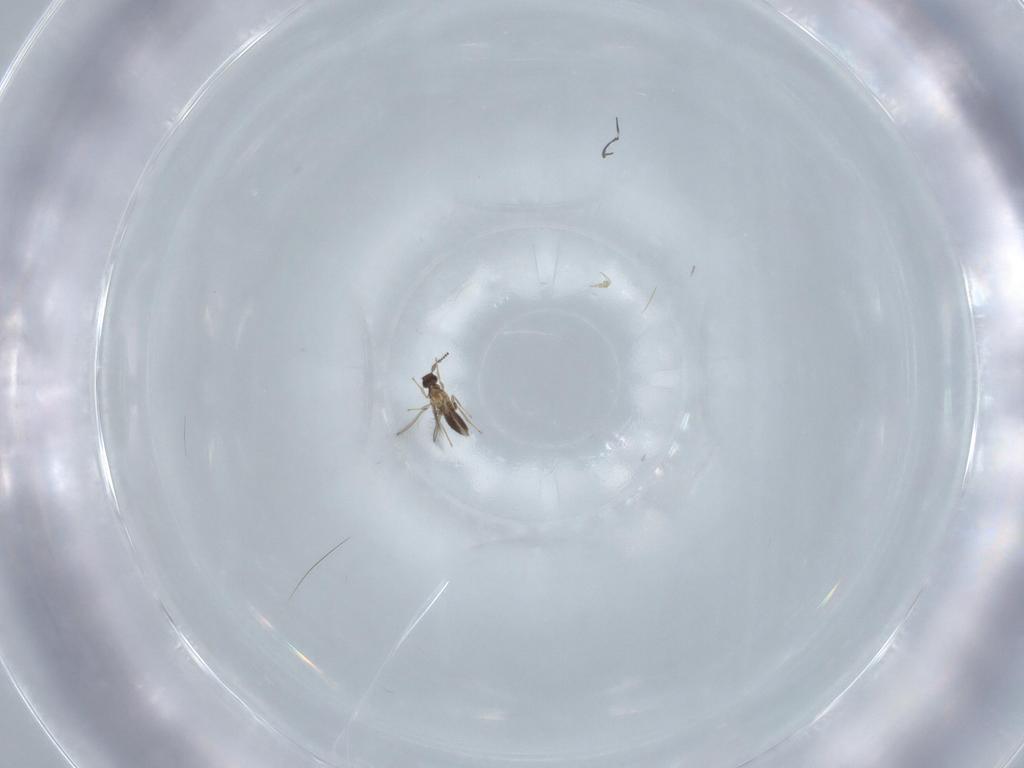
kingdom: Animalia
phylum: Arthropoda
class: Insecta
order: Hymenoptera
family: Mymaridae
